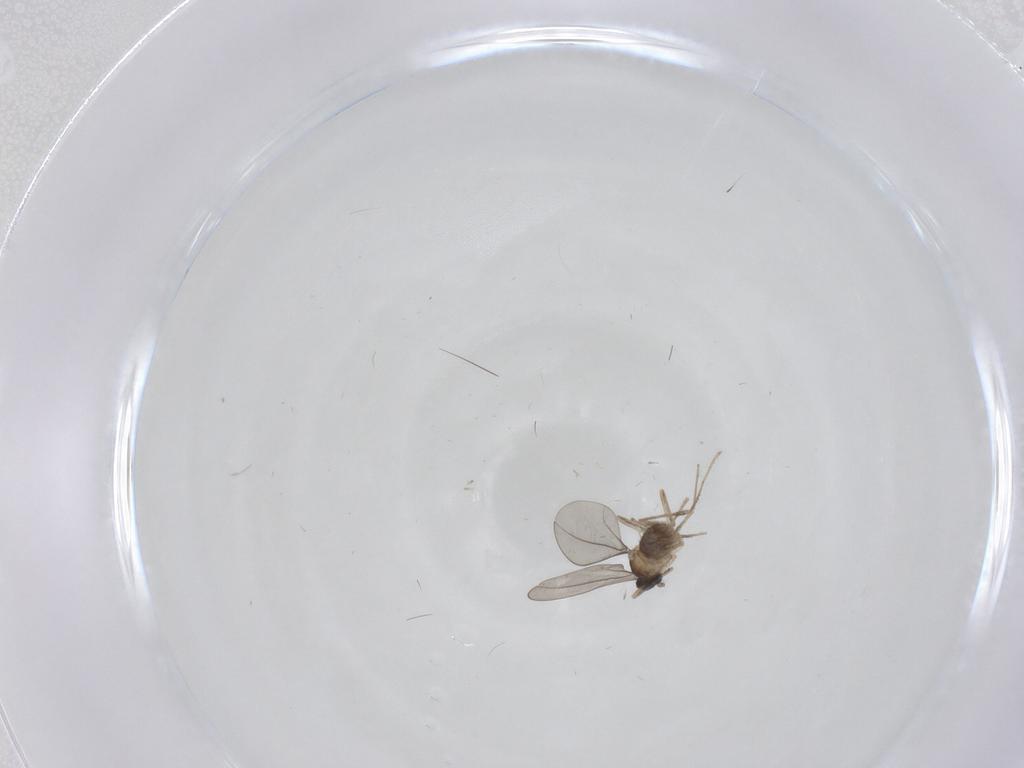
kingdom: Animalia
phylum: Arthropoda
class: Insecta
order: Diptera
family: Cecidomyiidae
